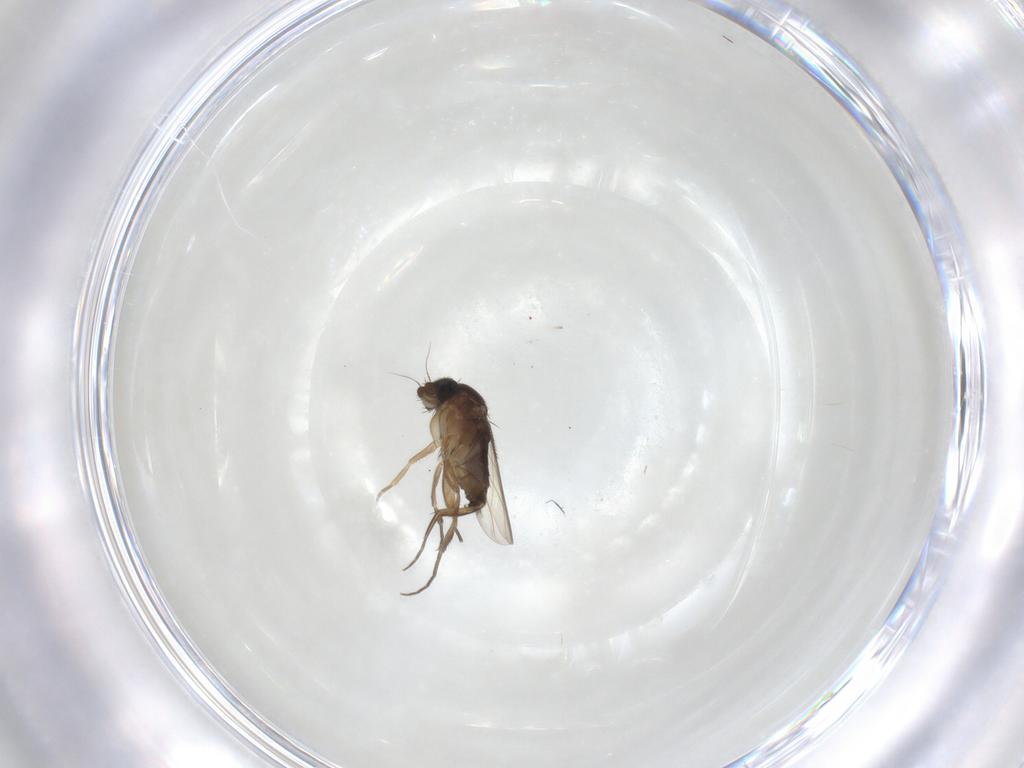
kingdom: Animalia
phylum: Arthropoda
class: Insecta
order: Diptera
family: Phoridae
